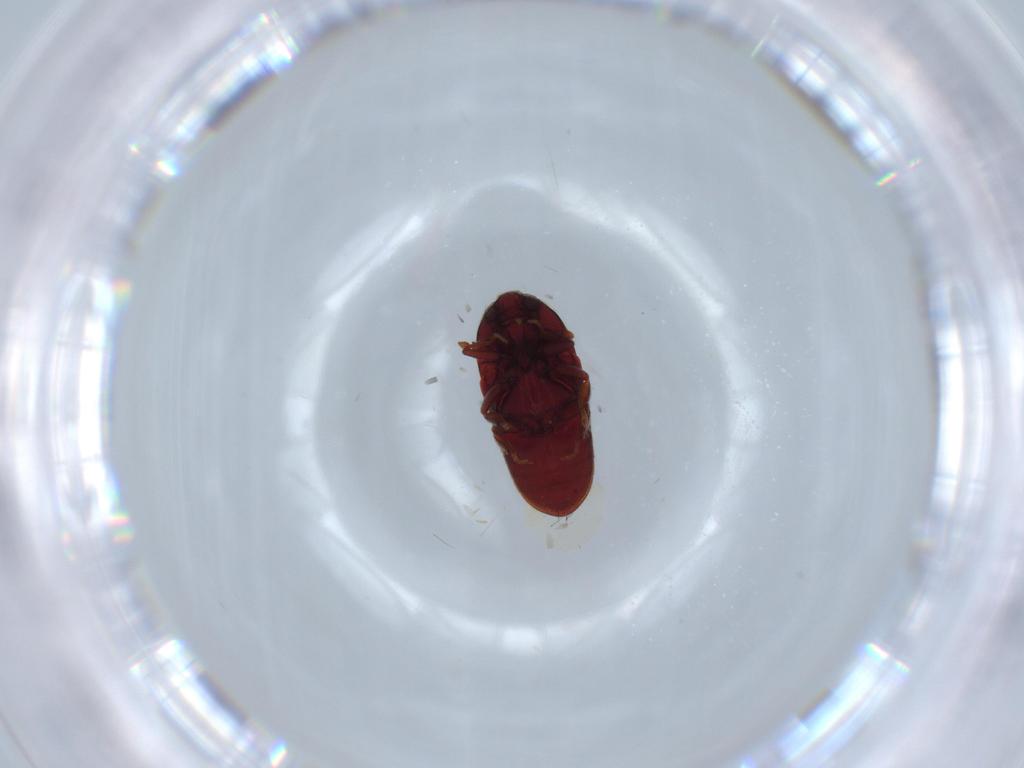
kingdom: Animalia
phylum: Arthropoda
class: Insecta
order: Coleoptera
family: Throscidae
